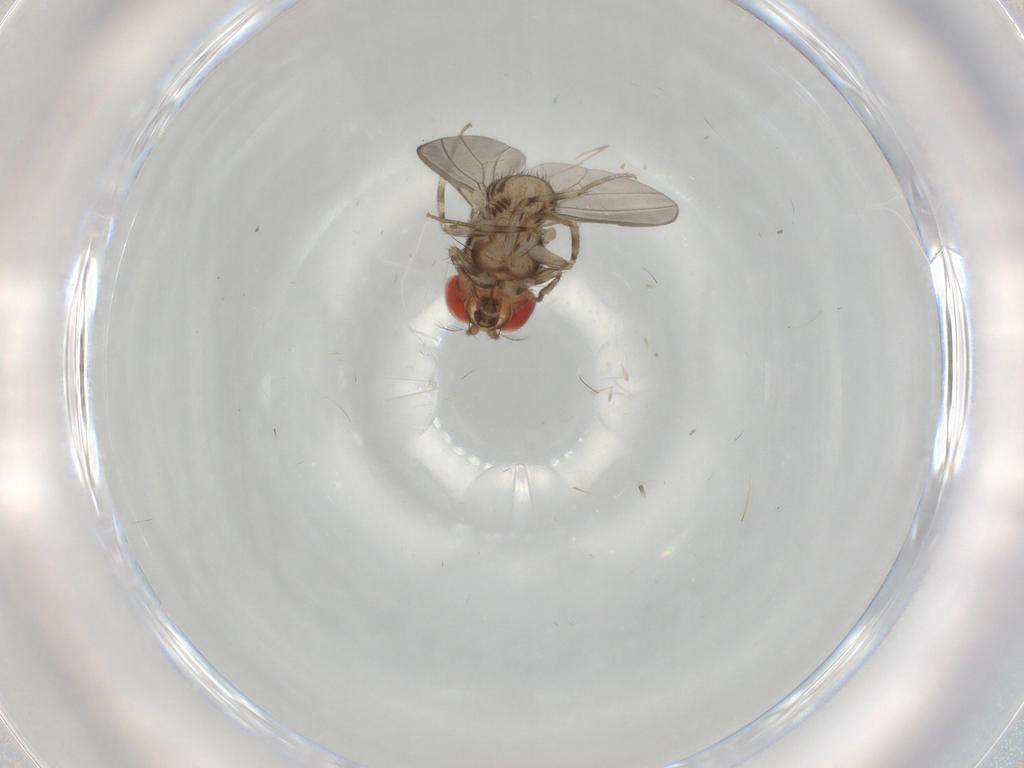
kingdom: Animalia
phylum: Arthropoda
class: Insecta
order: Diptera
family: Drosophilidae
